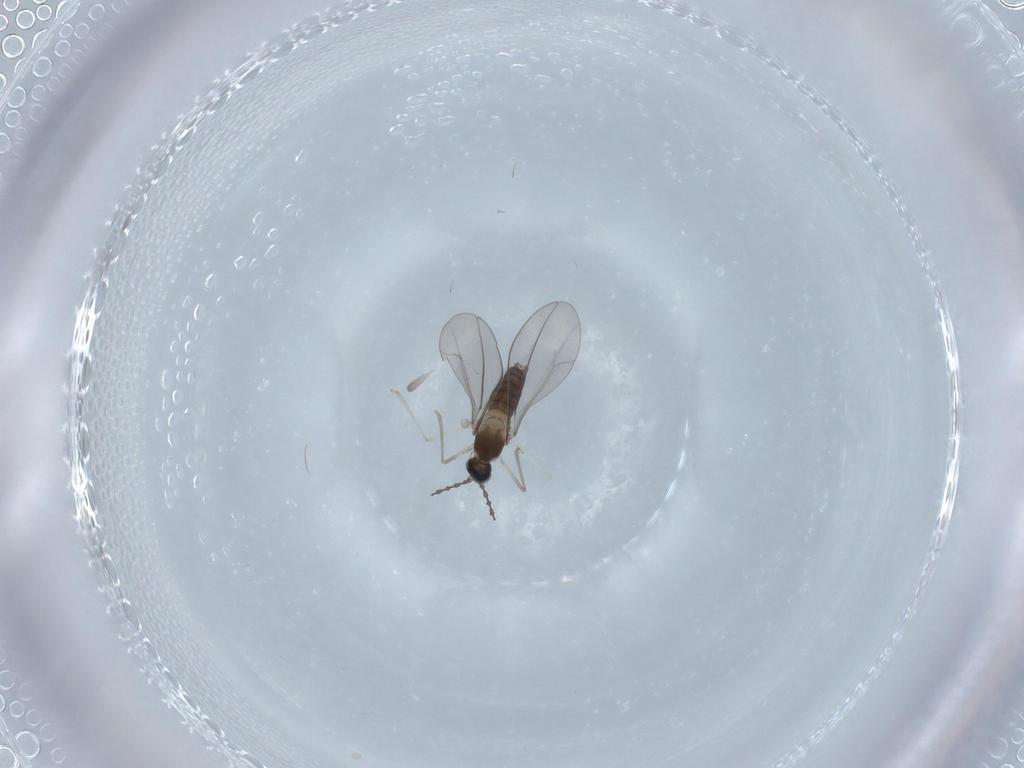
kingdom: Animalia
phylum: Arthropoda
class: Insecta
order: Diptera
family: Cecidomyiidae
